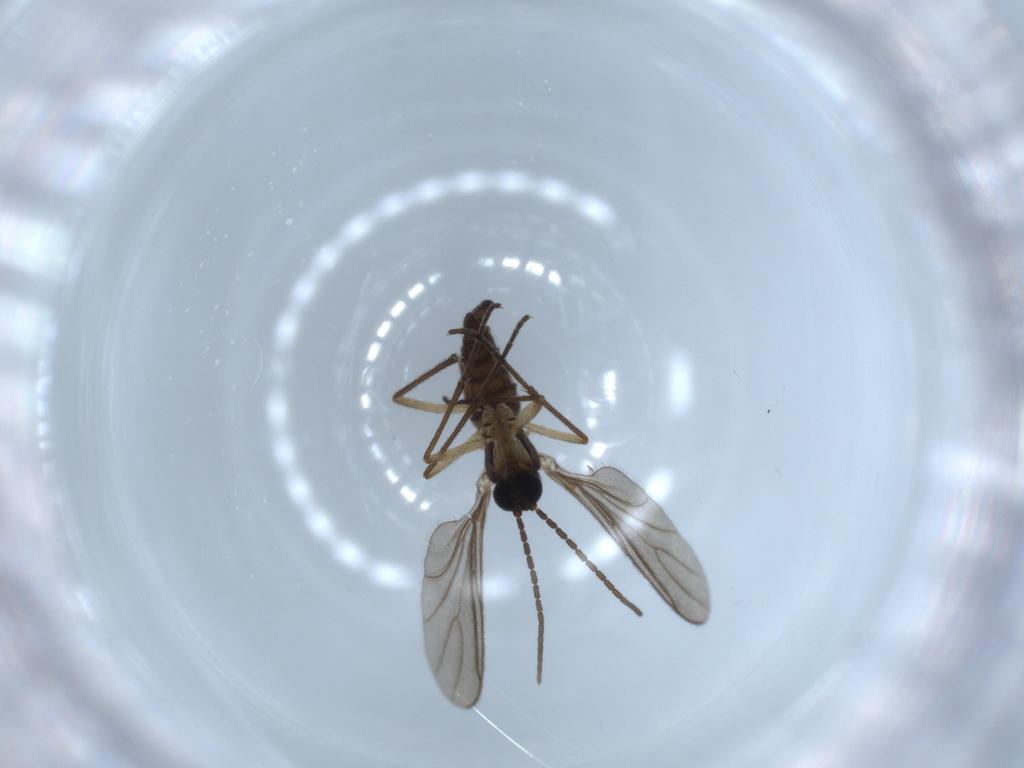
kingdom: Animalia
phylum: Arthropoda
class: Insecta
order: Diptera
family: Sciaridae
